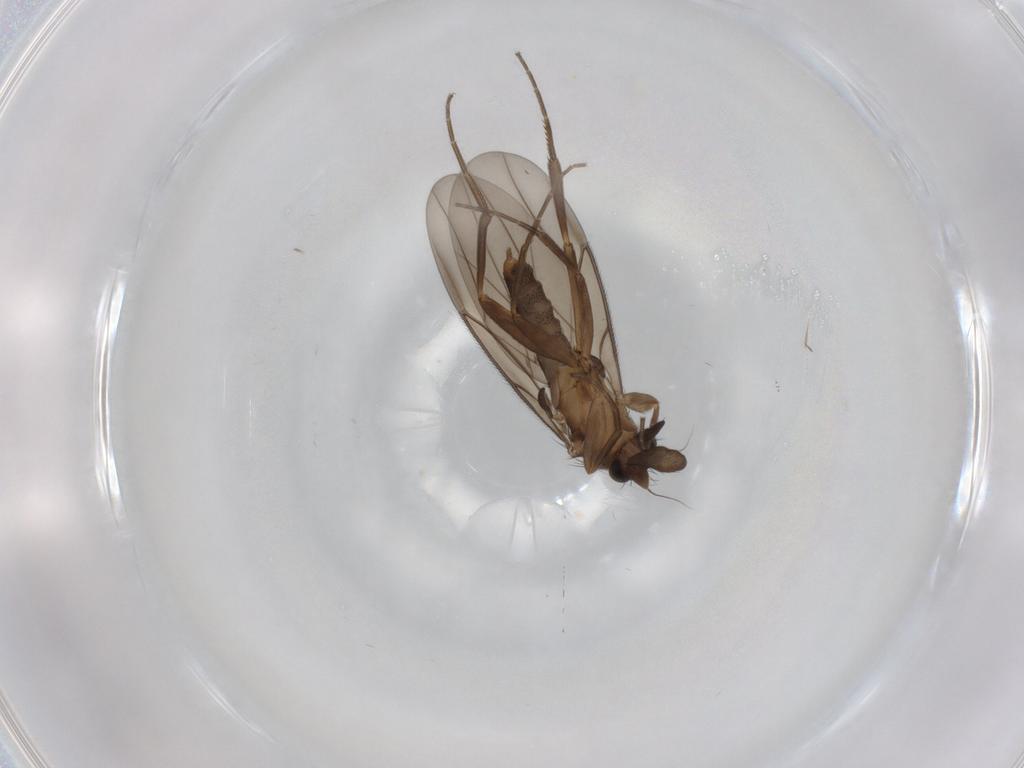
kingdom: Animalia
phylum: Arthropoda
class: Insecta
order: Diptera
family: Phoridae
